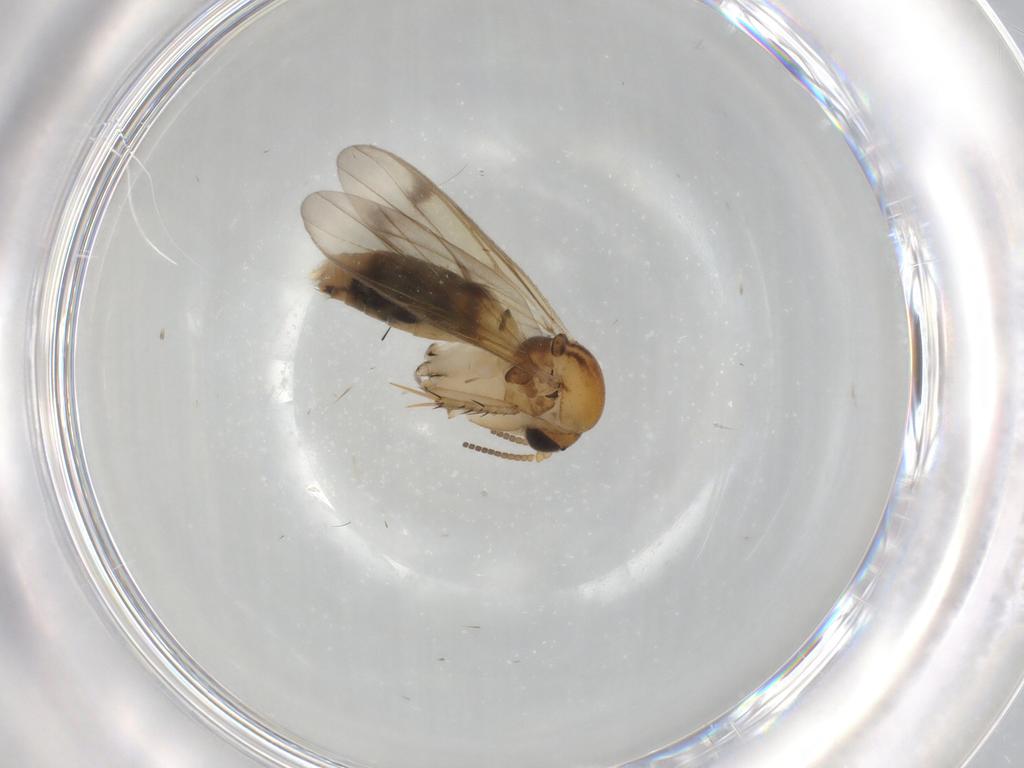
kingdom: Animalia
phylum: Arthropoda
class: Insecta
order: Diptera
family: Mycetophilidae
